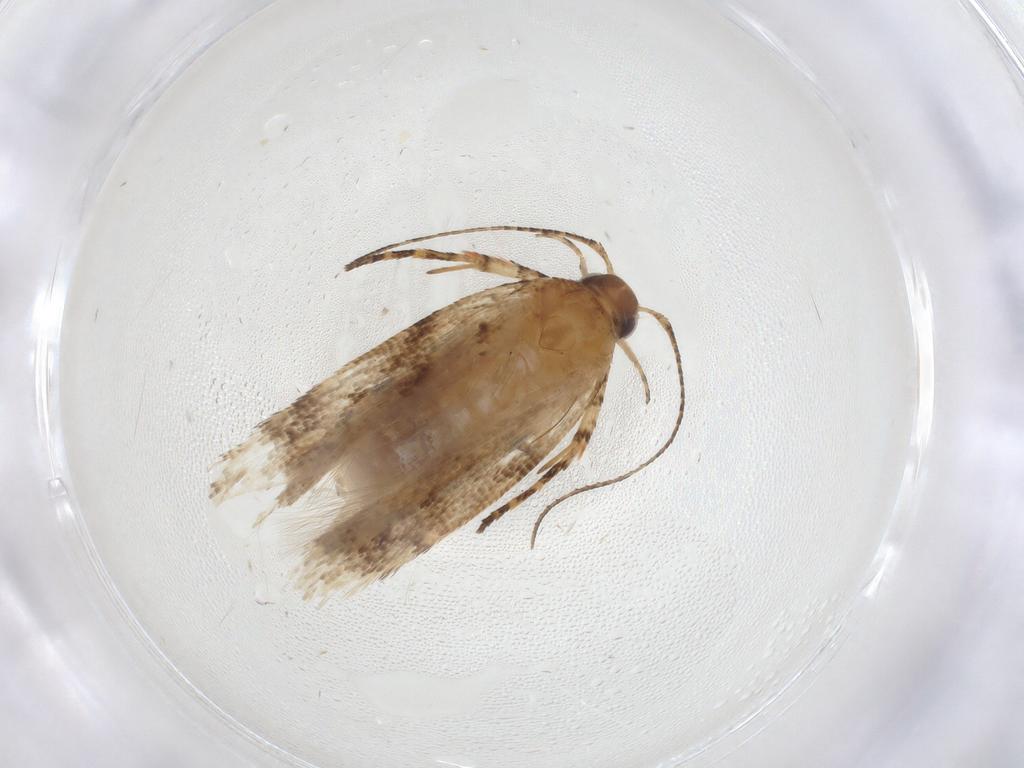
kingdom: Animalia
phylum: Arthropoda
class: Insecta
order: Lepidoptera
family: Gelechiidae
